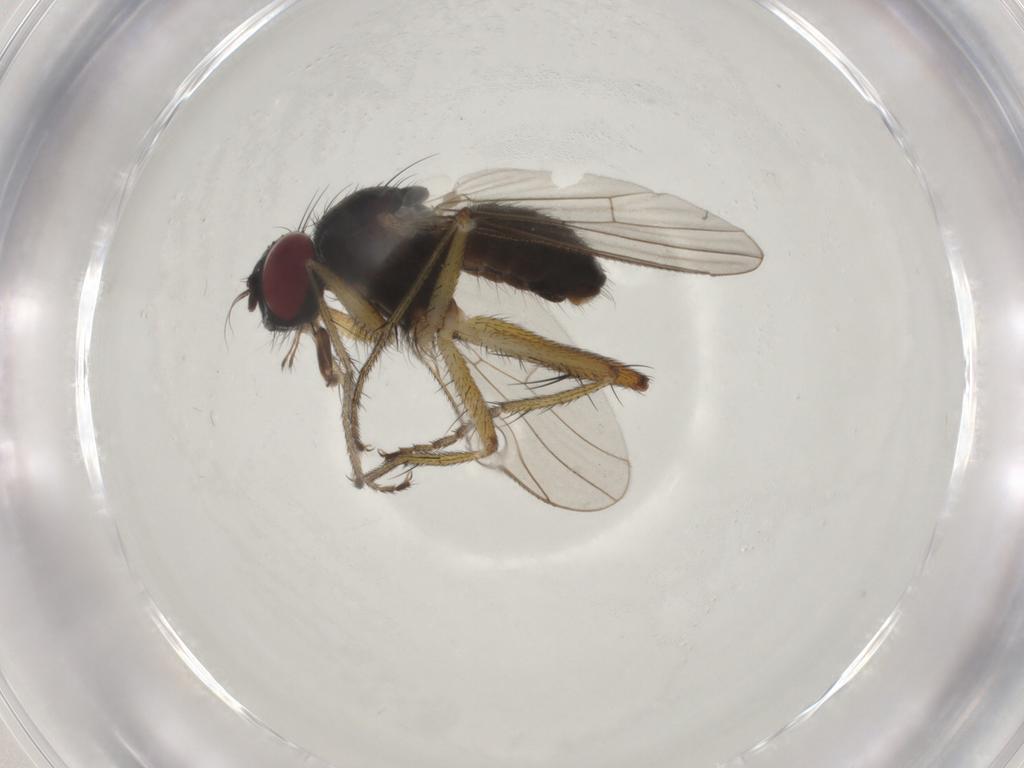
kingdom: Animalia
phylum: Arthropoda
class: Insecta
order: Diptera
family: Muscidae
